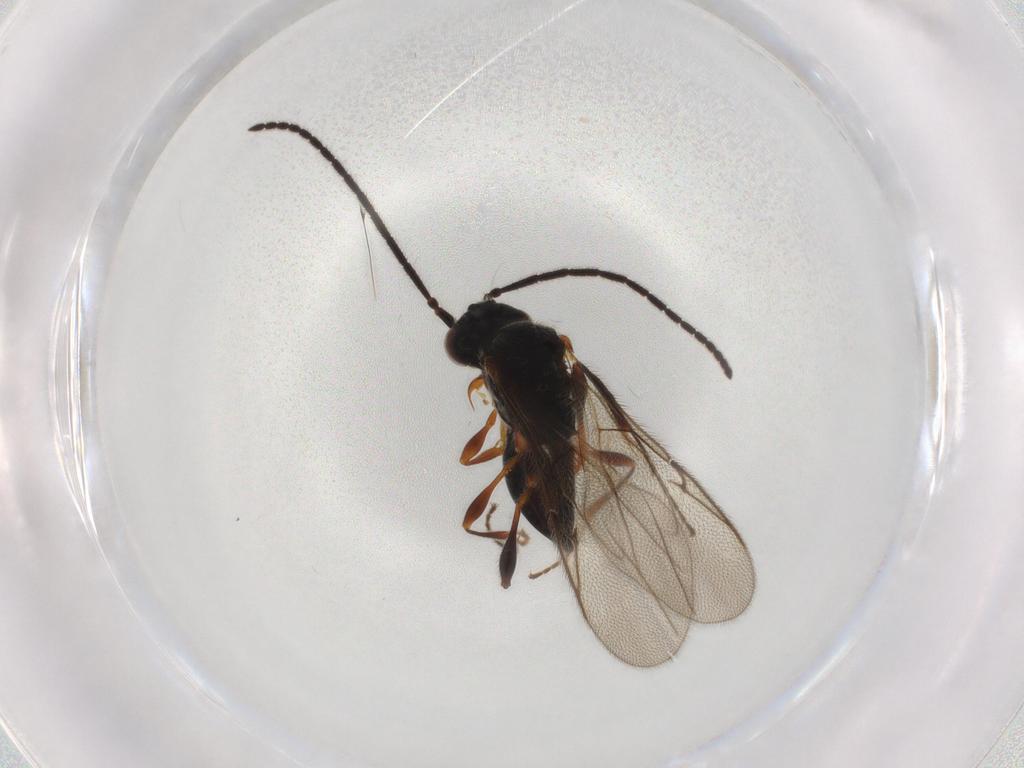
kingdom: Animalia
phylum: Arthropoda
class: Insecta
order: Hymenoptera
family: Diapriidae
